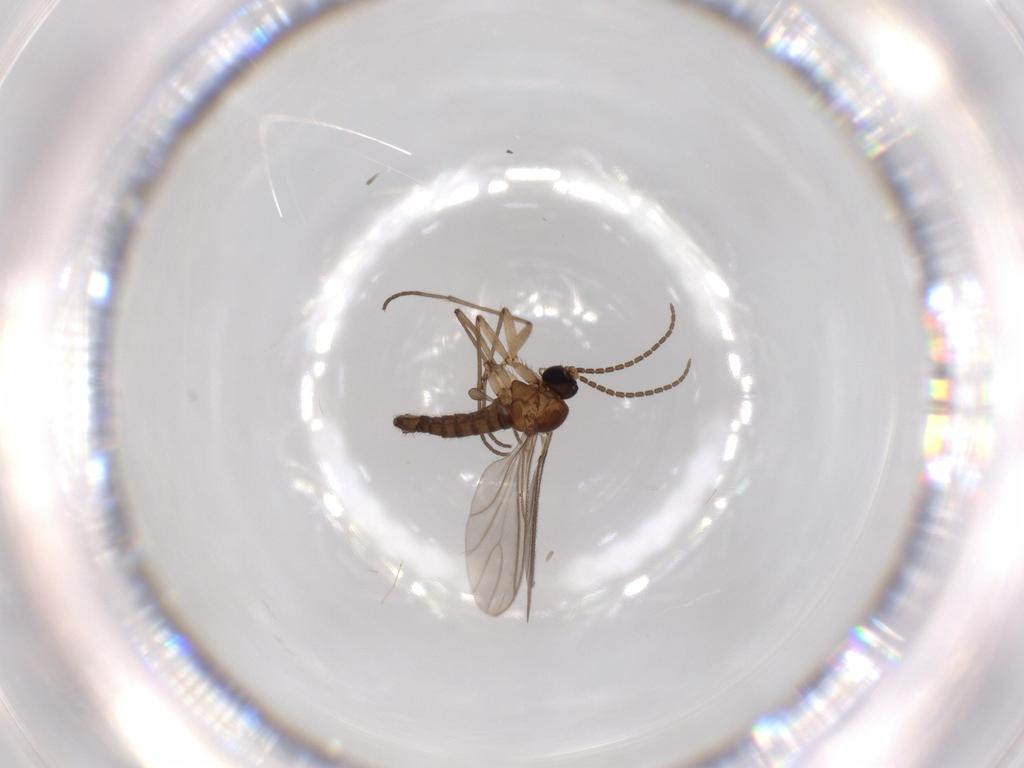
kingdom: Animalia
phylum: Arthropoda
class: Insecta
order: Diptera
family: Sciaridae
